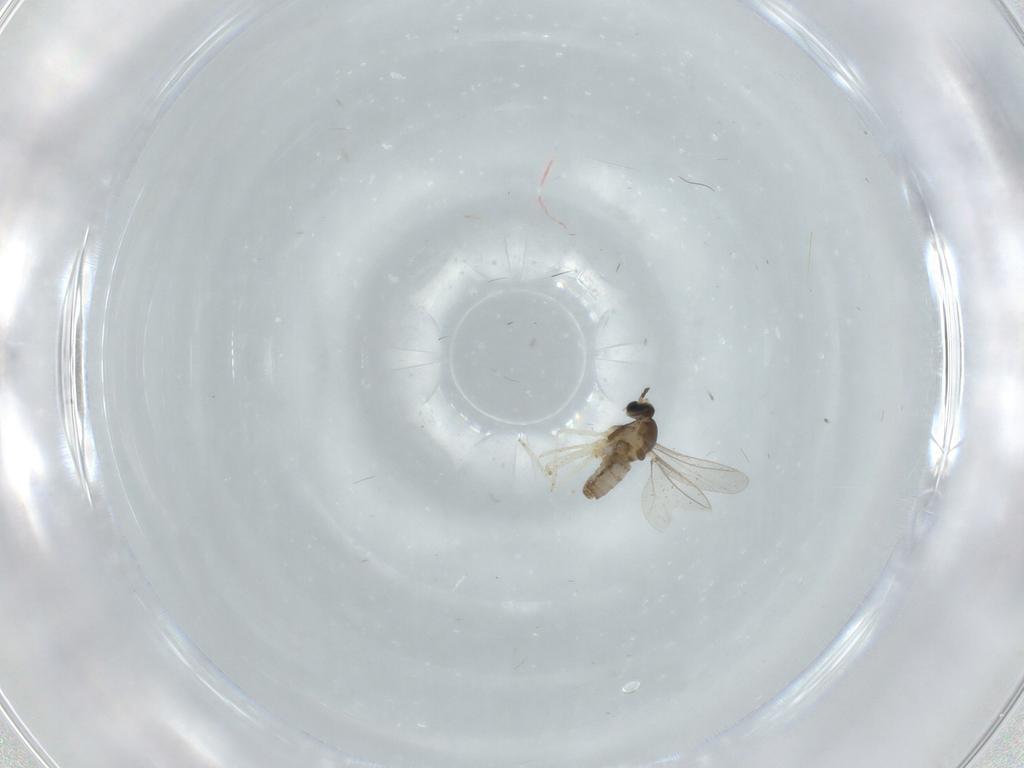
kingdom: Animalia
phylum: Arthropoda
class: Insecta
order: Diptera
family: Cecidomyiidae
